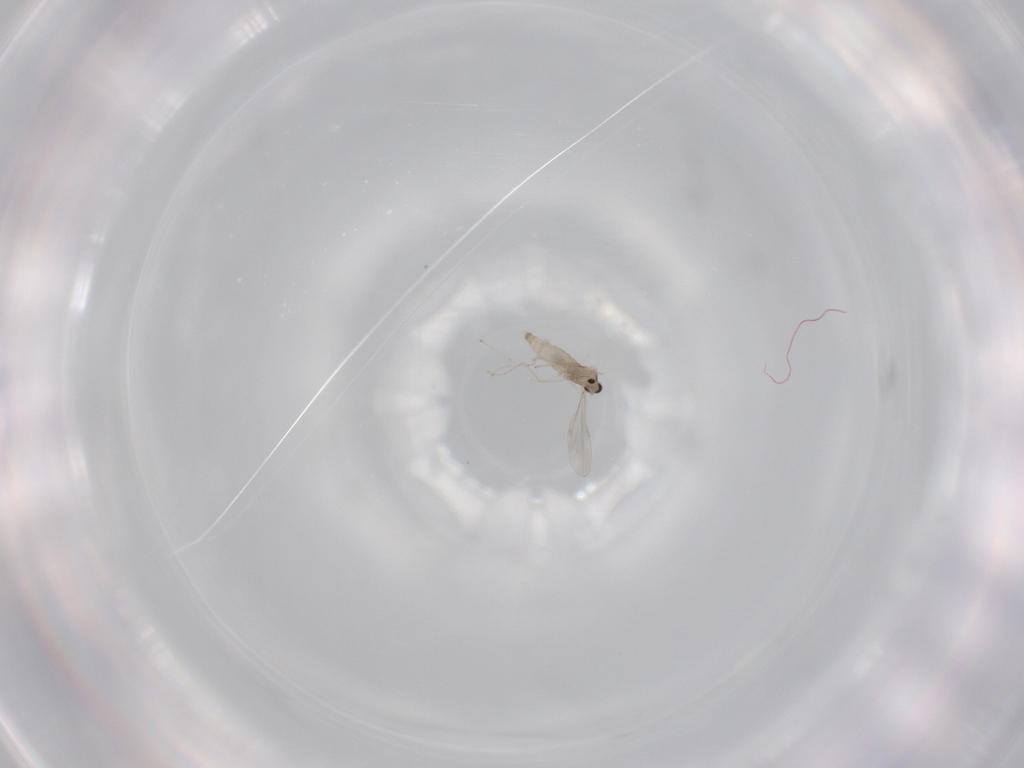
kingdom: Animalia
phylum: Arthropoda
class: Insecta
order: Diptera
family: Cecidomyiidae
